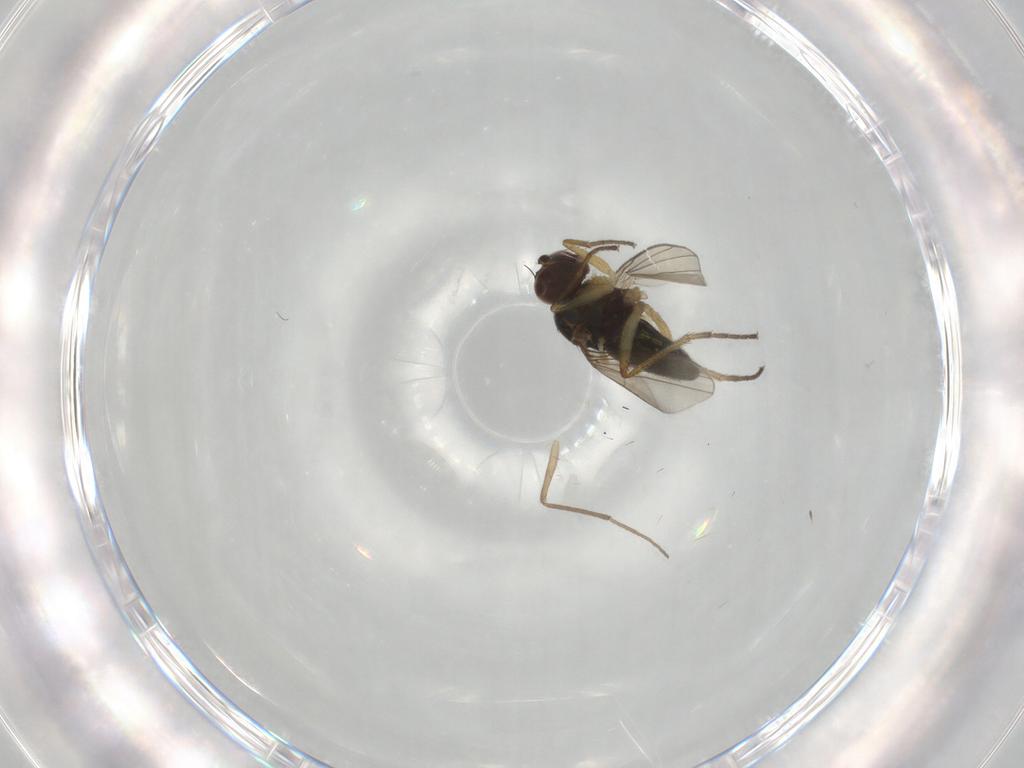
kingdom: Animalia
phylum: Arthropoda
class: Insecta
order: Diptera
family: Chironomidae
